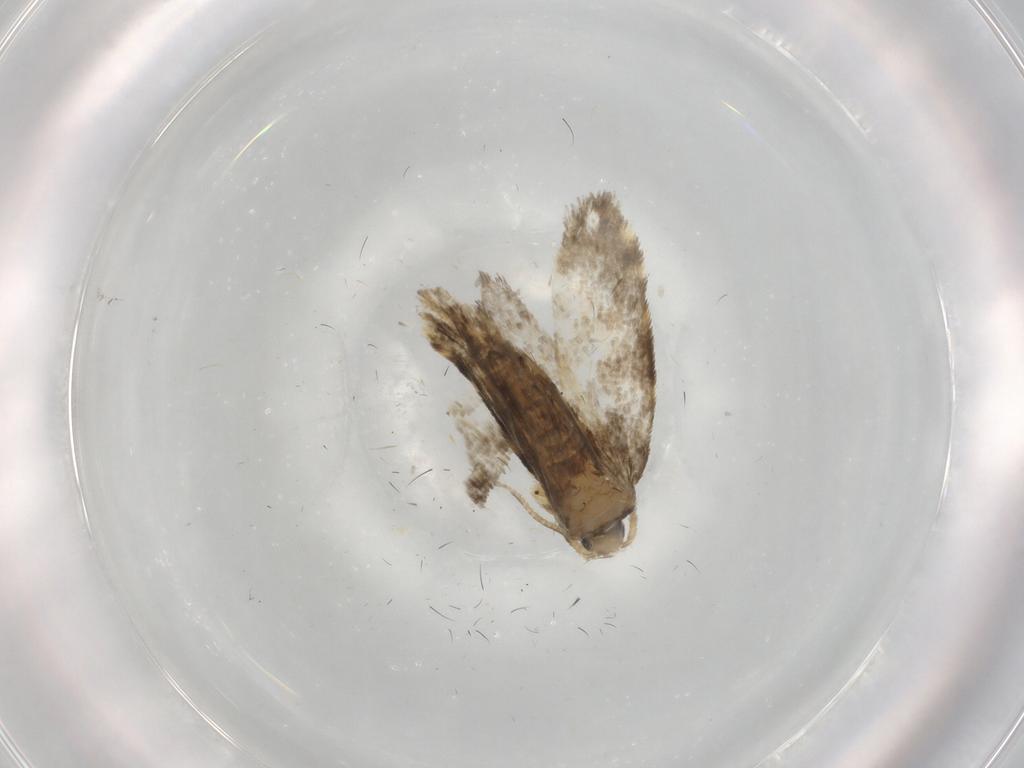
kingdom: Animalia
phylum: Arthropoda
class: Insecta
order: Lepidoptera
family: Psychidae
